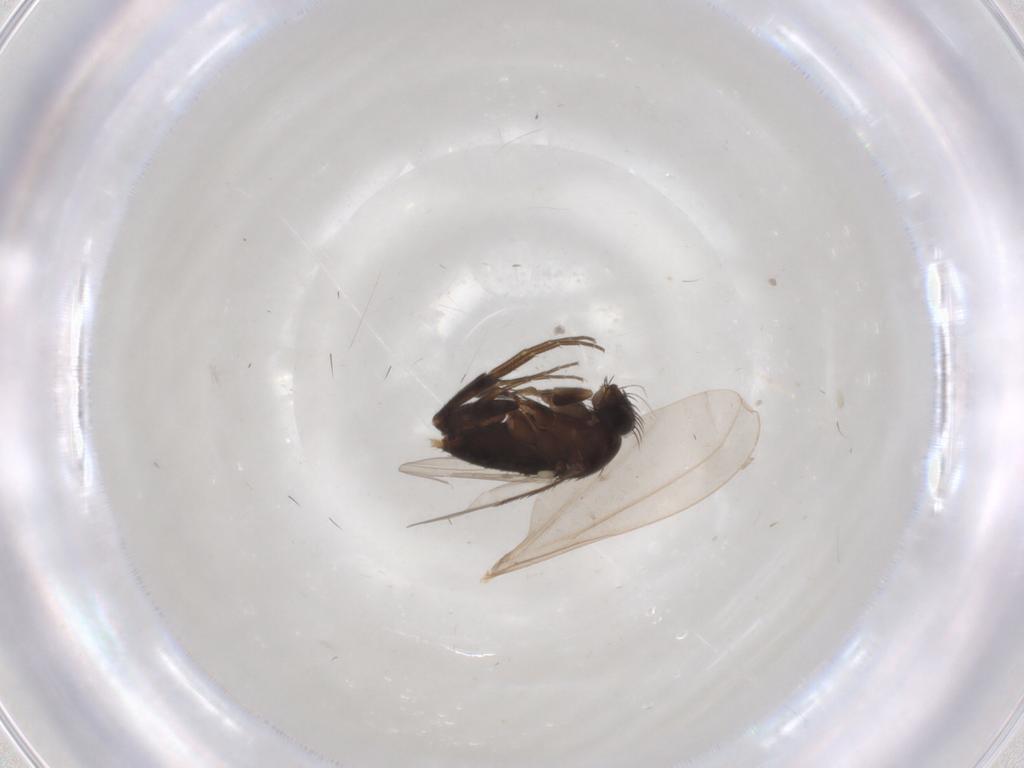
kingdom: Animalia
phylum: Arthropoda
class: Insecta
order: Diptera
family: Phoridae
